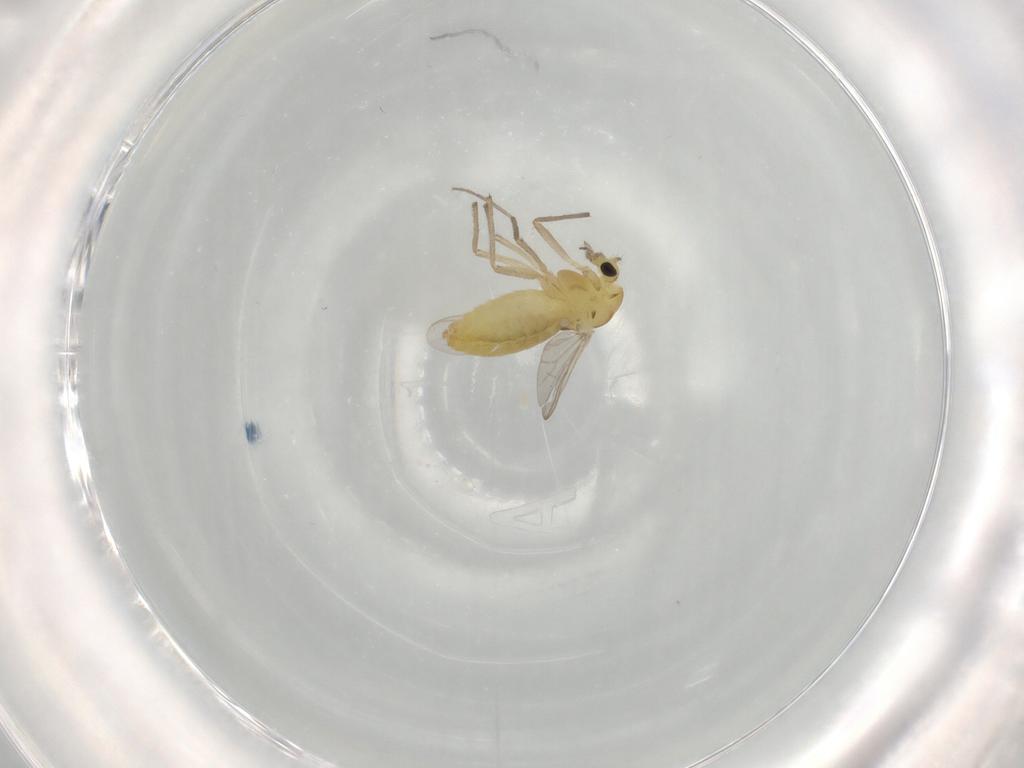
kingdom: Animalia
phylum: Arthropoda
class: Insecta
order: Diptera
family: Chironomidae
